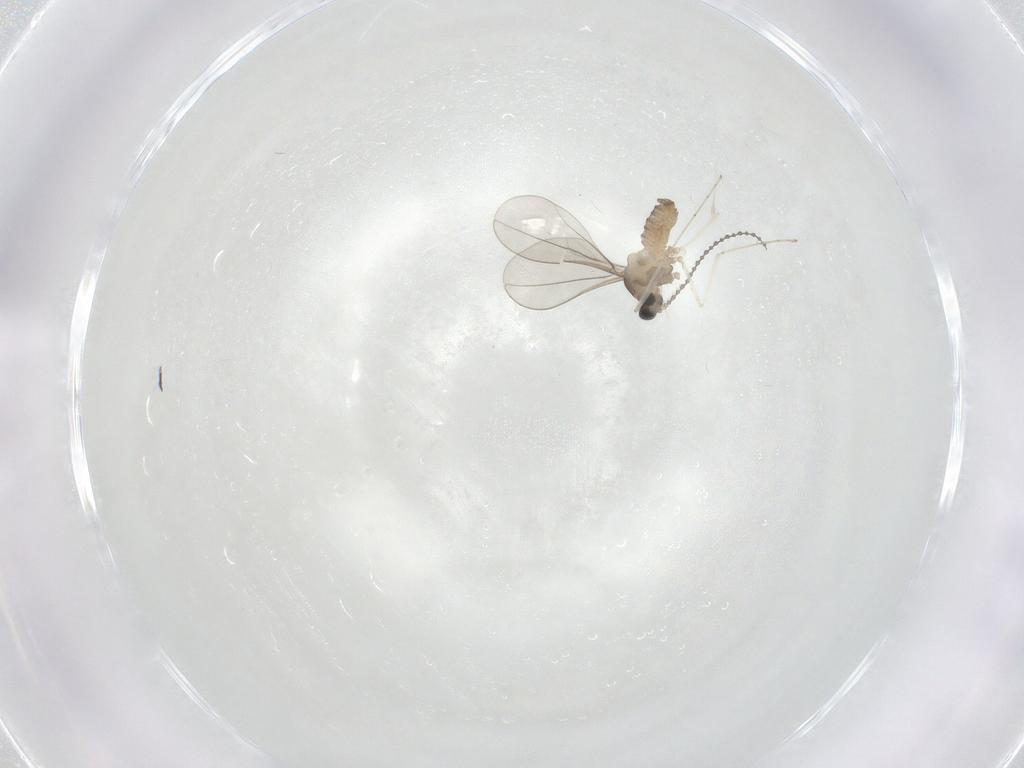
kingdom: Animalia
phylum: Arthropoda
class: Insecta
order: Diptera
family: Cecidomyiidae
